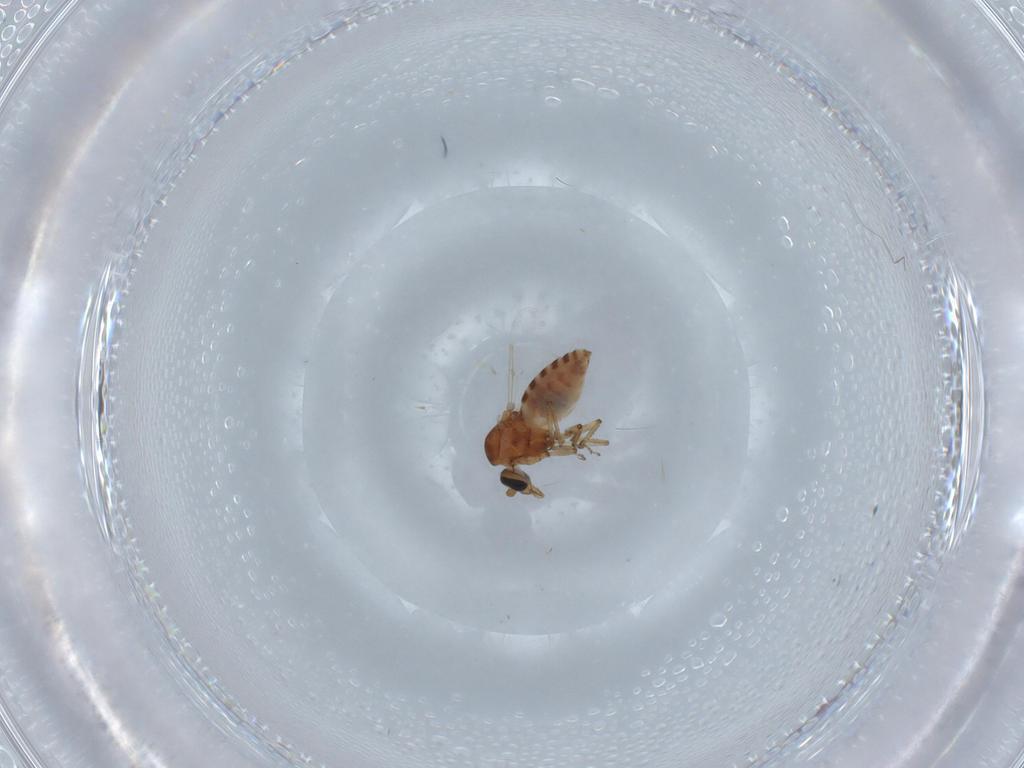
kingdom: Animalia
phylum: Arthropoda
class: Insecta
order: Diptera
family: Ceratopogonidae
